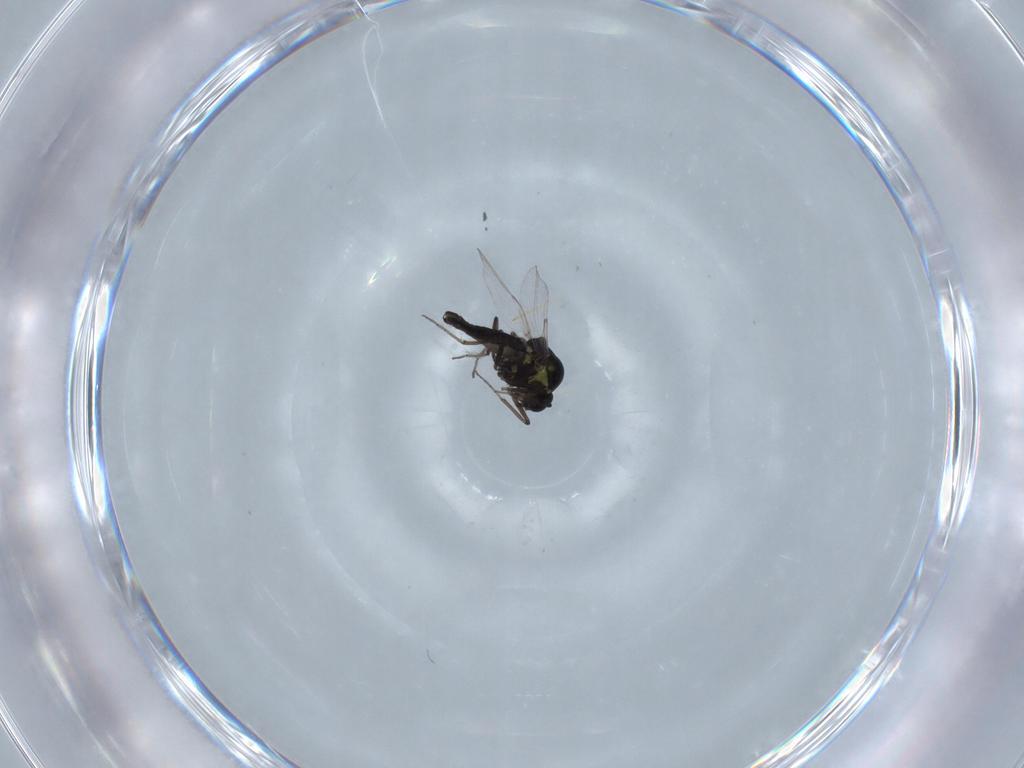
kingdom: Animalia
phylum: Arthropoda
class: Insecta
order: Diptera
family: Ceratopogonidae
